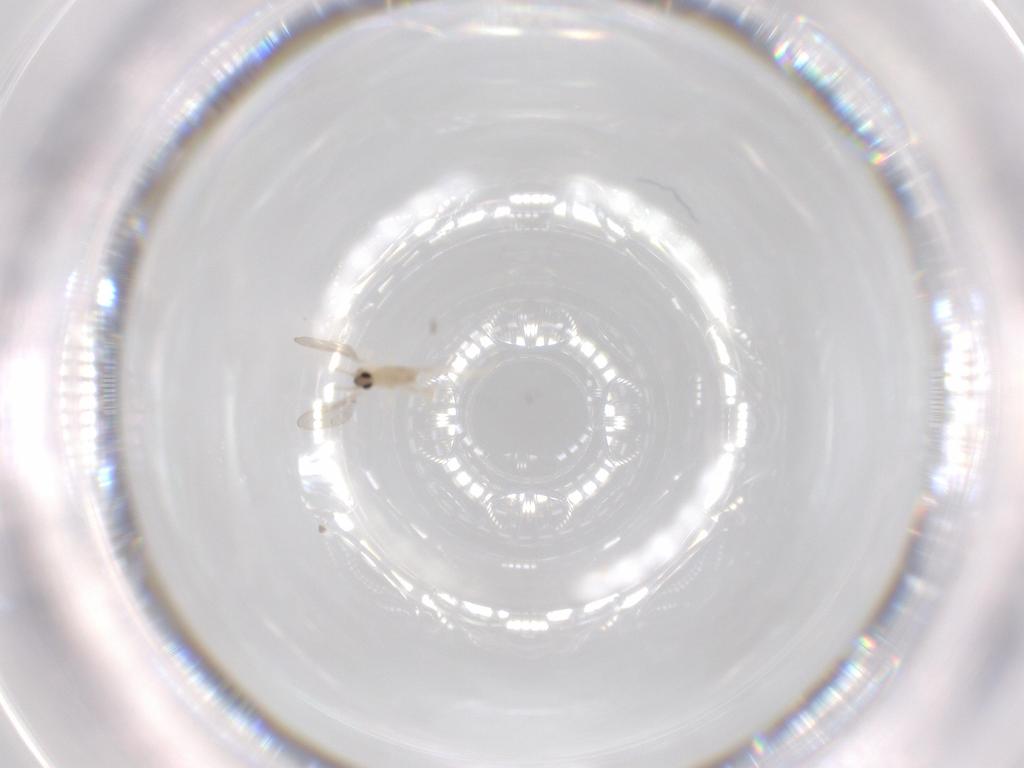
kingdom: Animalia
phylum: Arthropoda
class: Insecta
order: Diptera
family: Cecidomyiidae
